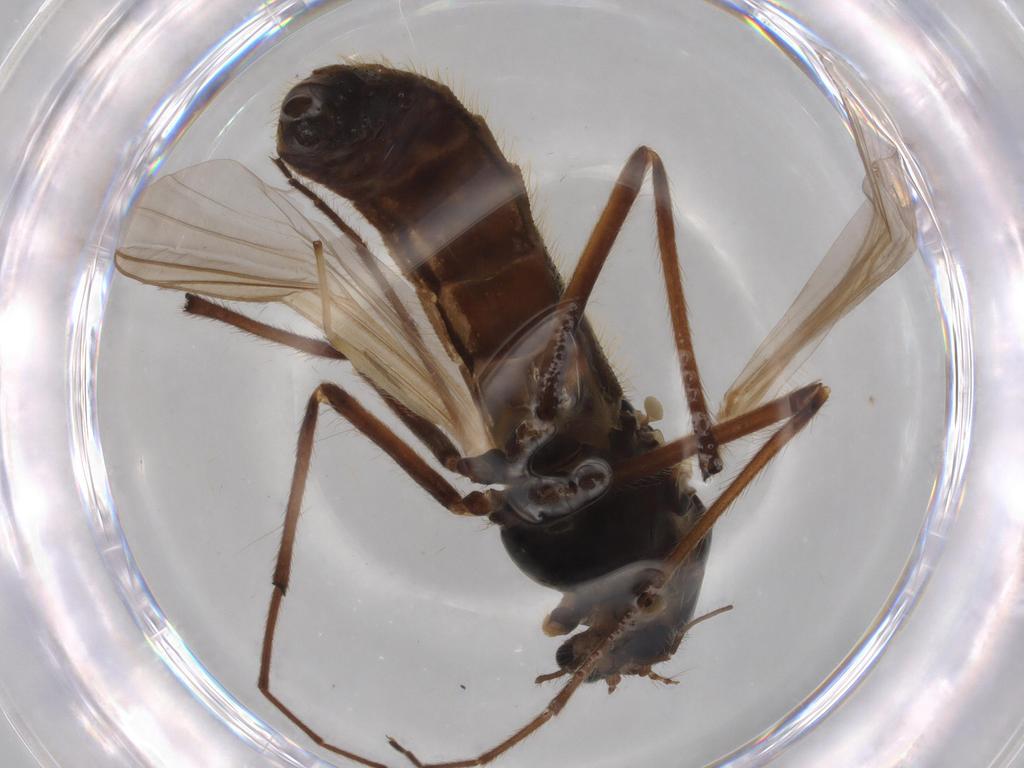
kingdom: Animalia
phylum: Arthropoda
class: Insecta
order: Diptera
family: Chironomidae
